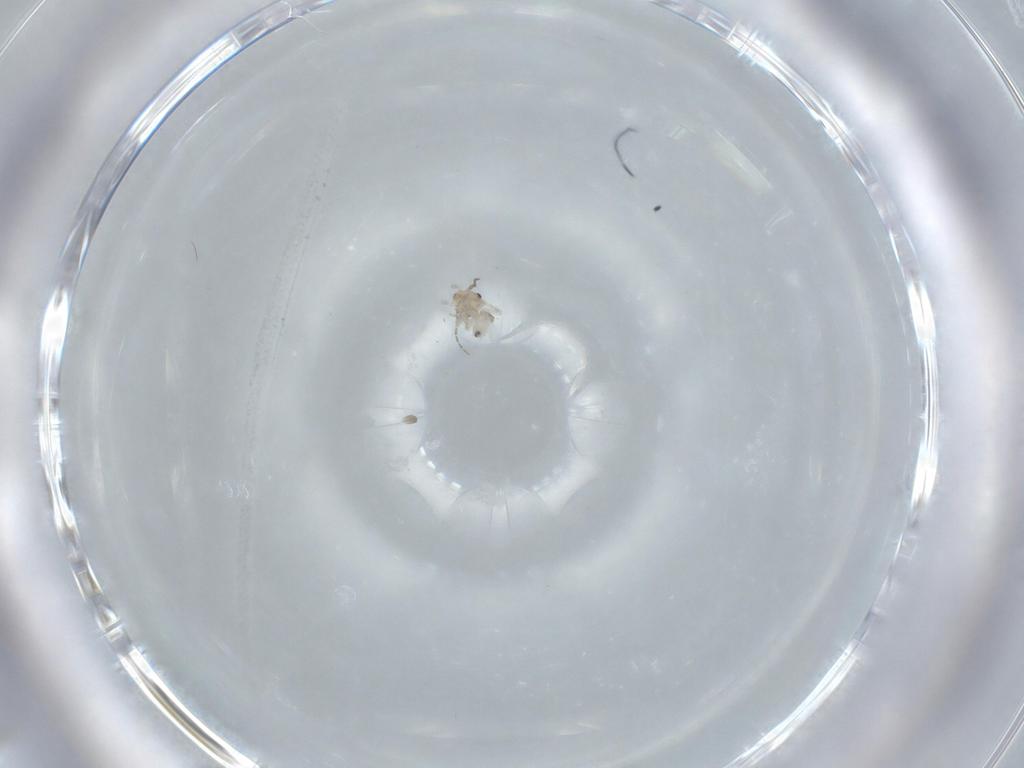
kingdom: Animalia
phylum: Arthropoda
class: Insecta
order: Psocodea
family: Lepidopsocidae
